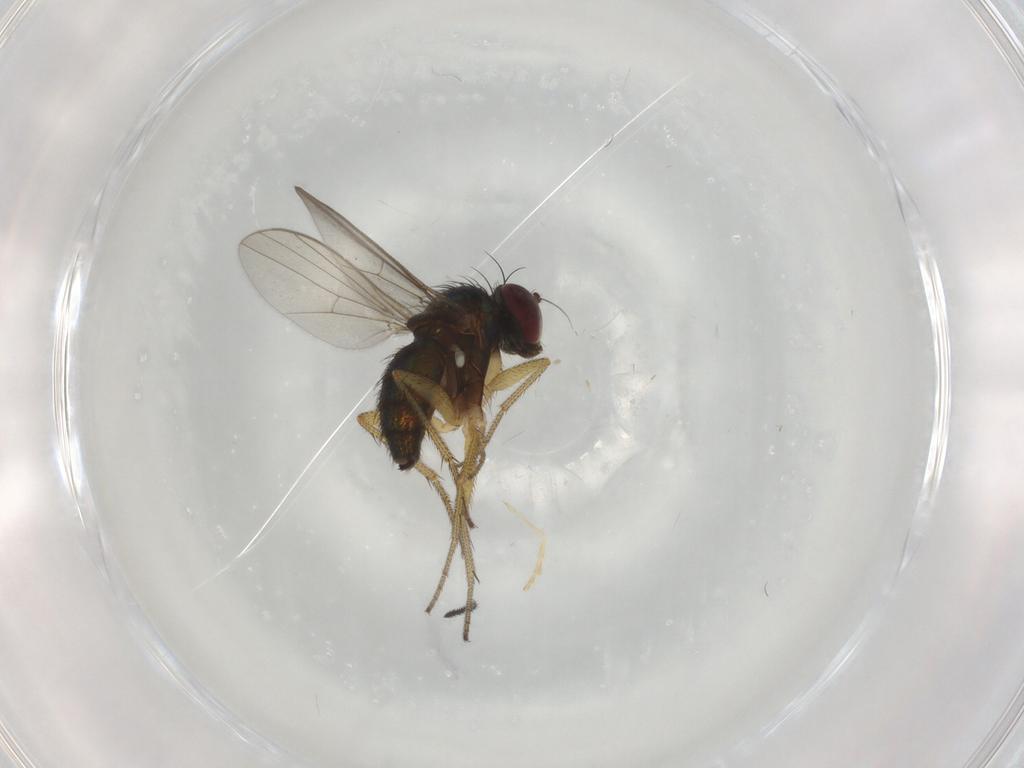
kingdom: Animalia
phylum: Arthropoda
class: Insecta
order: Diptera
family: Dolichopodidae
